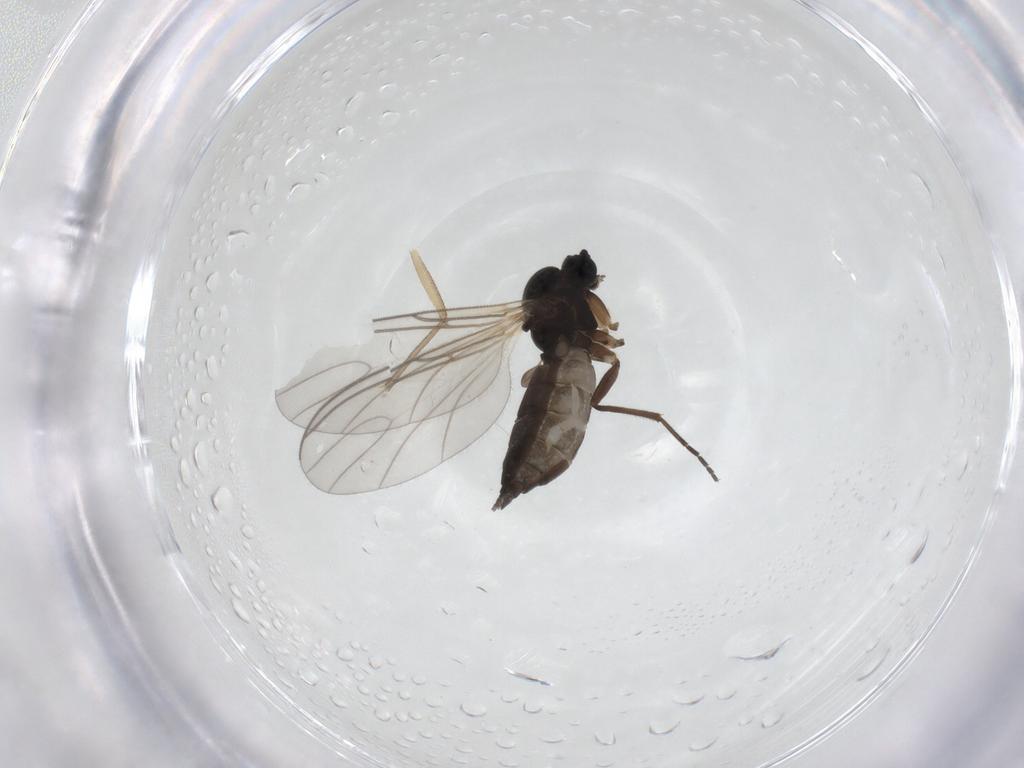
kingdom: Animalia
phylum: Arthropoda
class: Insecta
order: Diptera
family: Sciaridae
